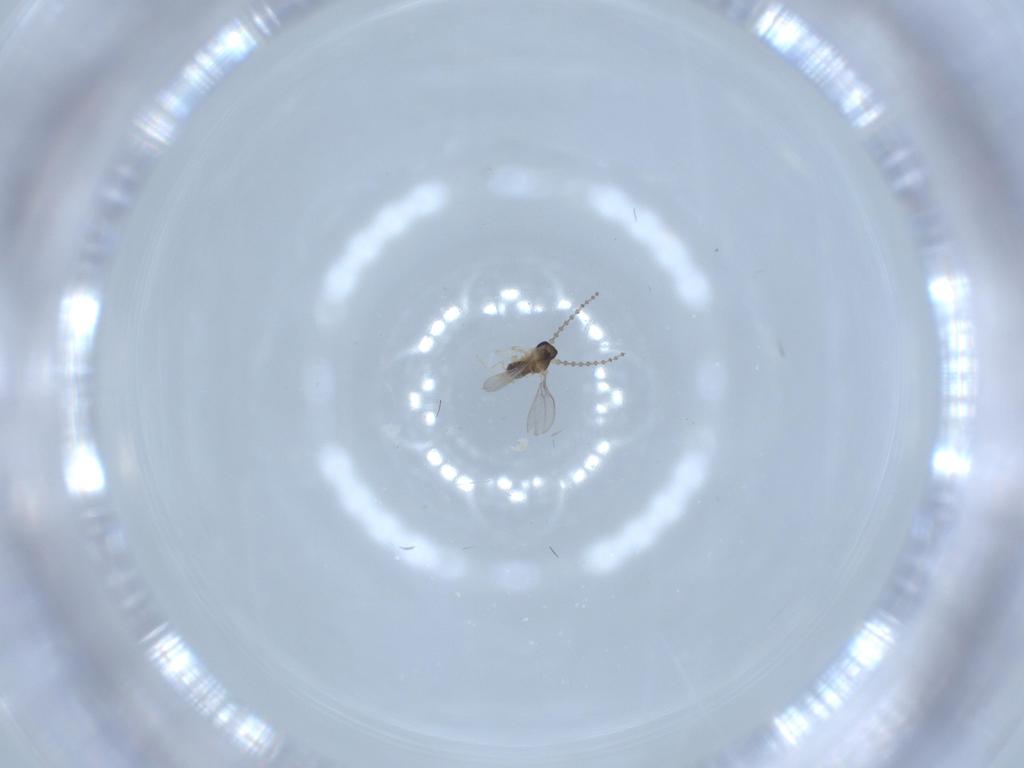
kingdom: Animalia
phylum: Arthropoda
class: Insecta
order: Diptera
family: Cecidomyiidae
